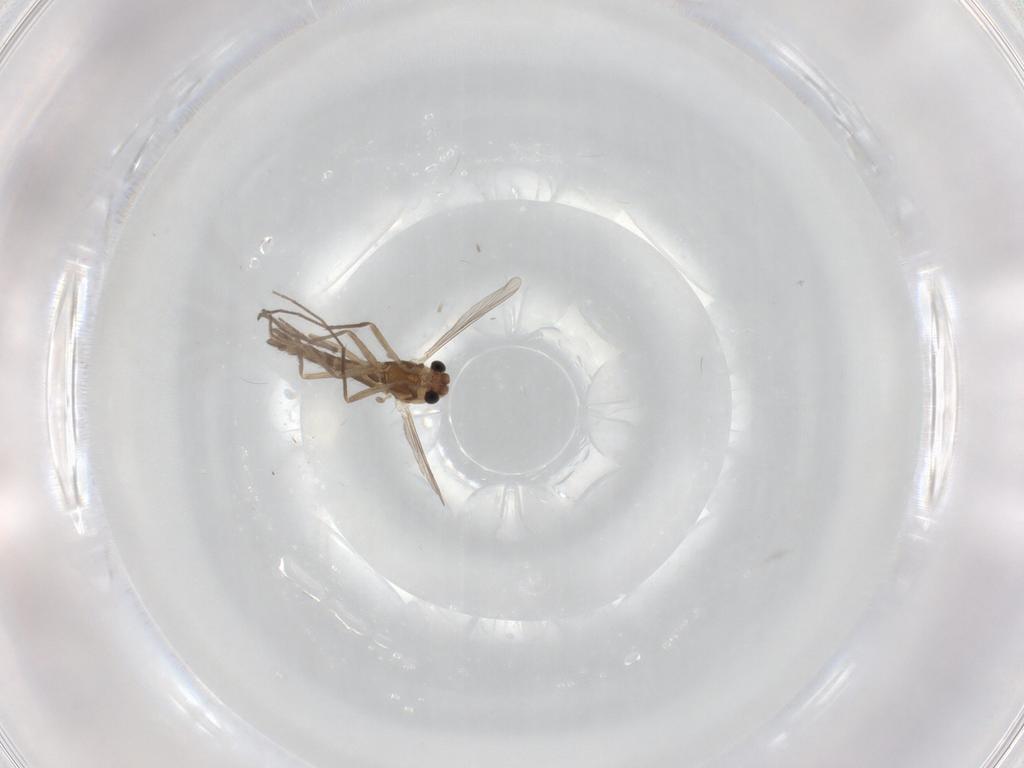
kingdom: Animalia
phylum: Arthropoda
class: Insecta
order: Diptera
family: Chironomidae
